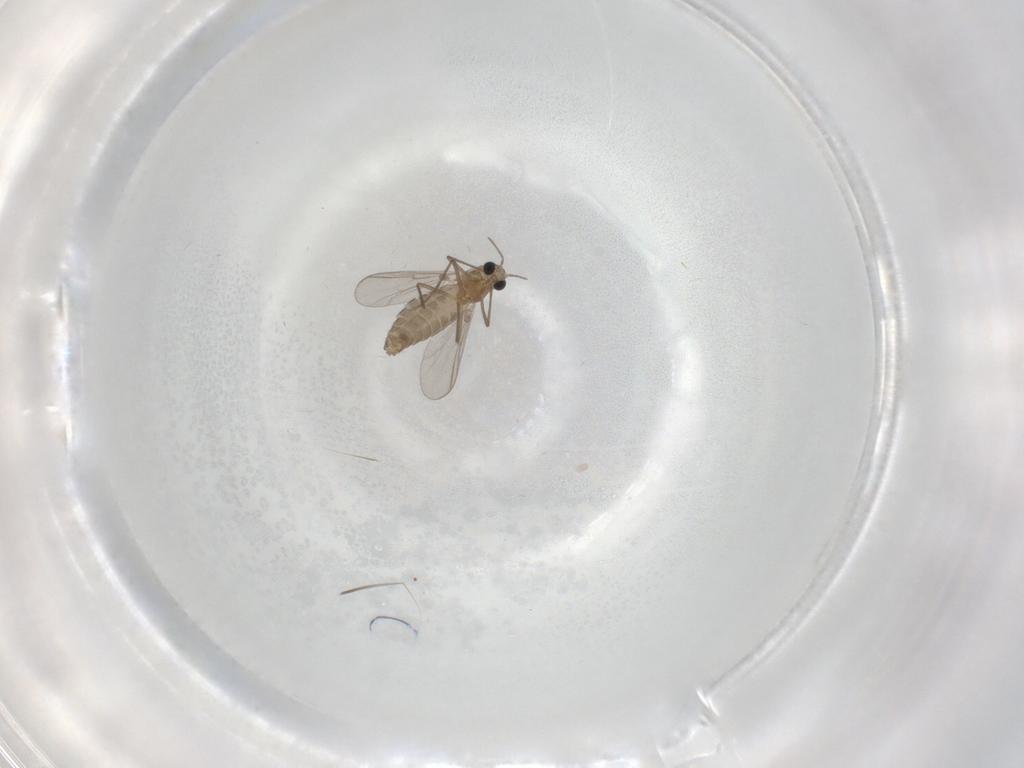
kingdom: Animalia
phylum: Arthropoda
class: Insecta
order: Diptera
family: Chironomidae
